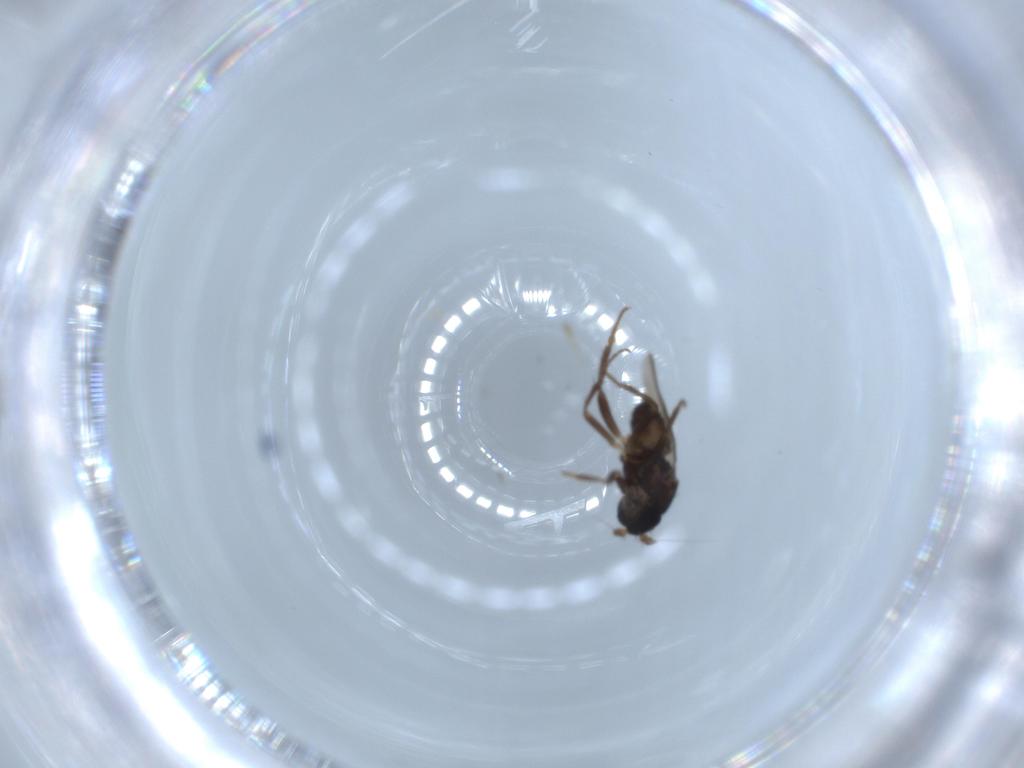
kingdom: Animalia
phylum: Arthropoda
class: Insecta
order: Diptera
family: Sphaeroceridae
